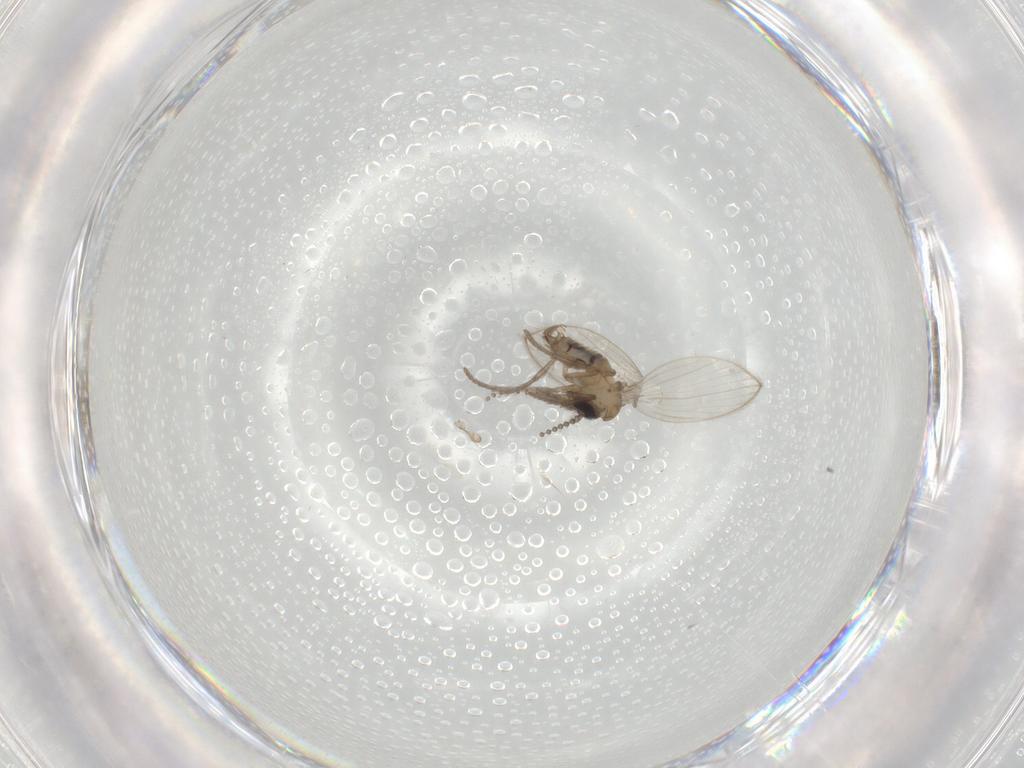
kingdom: Animalia
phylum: Arthropoda
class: Insecta
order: Diptera
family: Psychodidae
